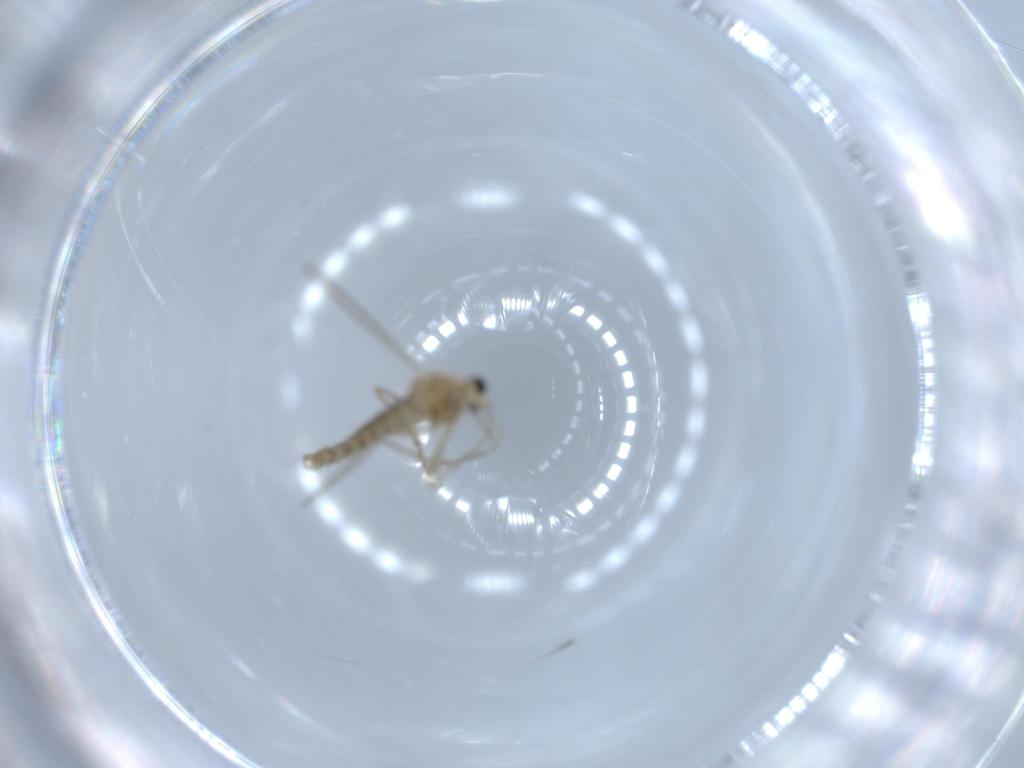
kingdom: Animalia
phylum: Arthropoda
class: Insecta
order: Diptera
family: Chironomidae
